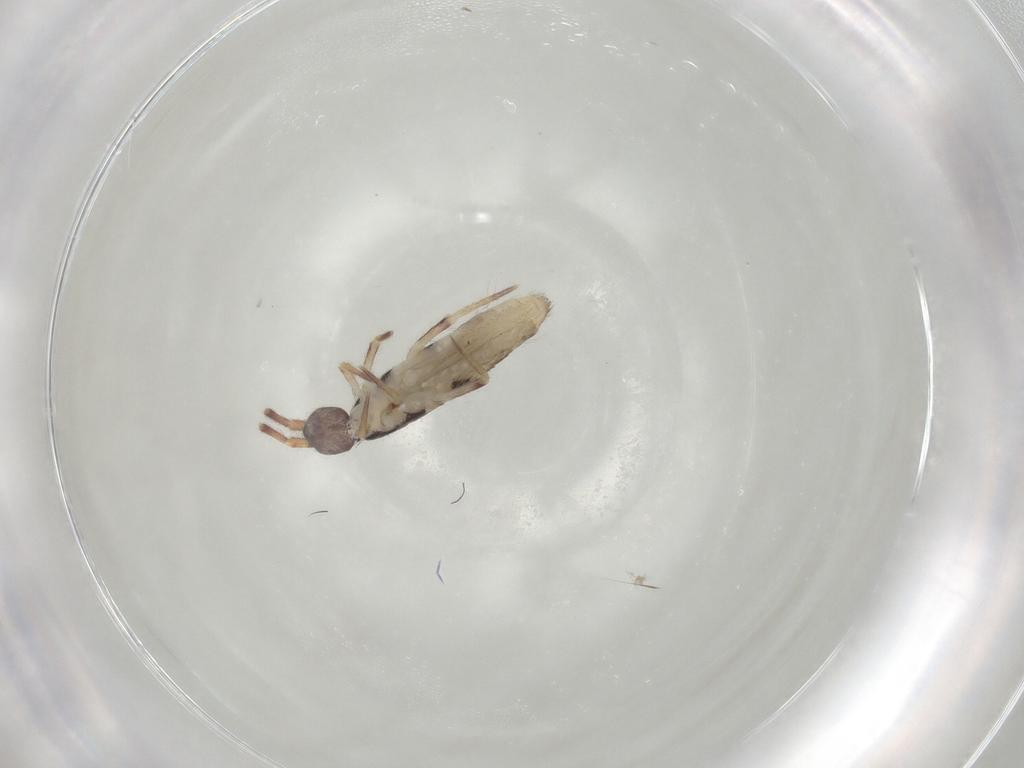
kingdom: Animalia
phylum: Arthropoda
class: Collembola
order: Entomobryomorpha
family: Entomobryidae
